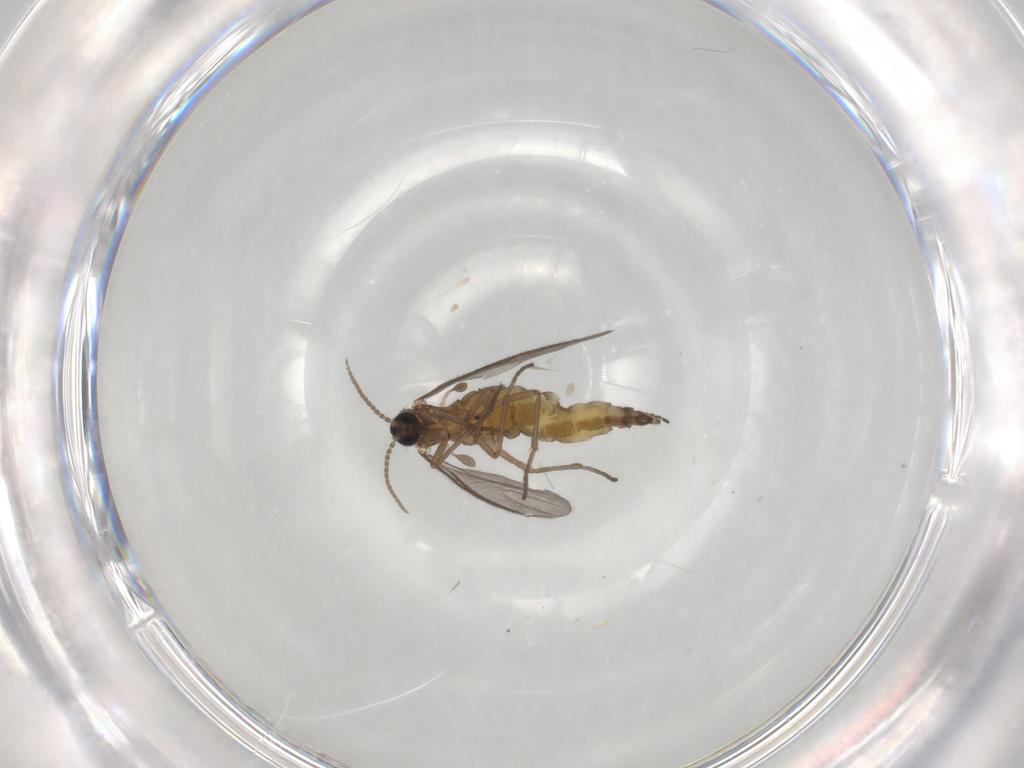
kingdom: Animalia
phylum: Arthropoda
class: Insecta
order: Diptera
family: Phoridae
